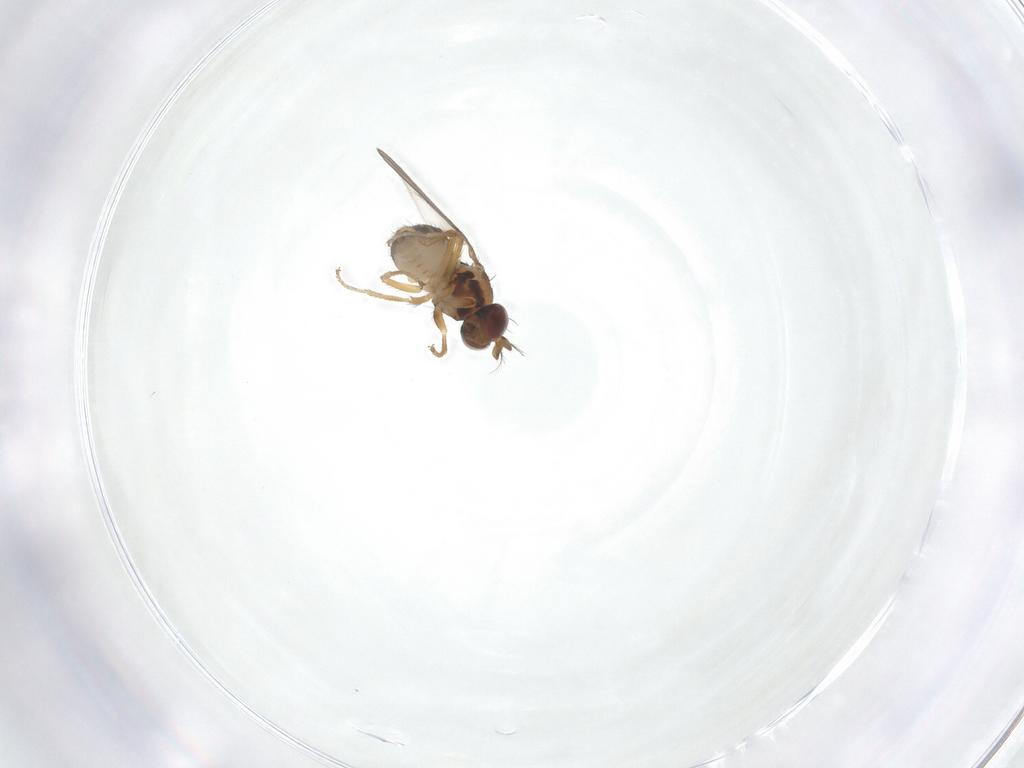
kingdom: Animalia
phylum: Arthropoda
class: Insecta
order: Diptera
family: Ephydridae
